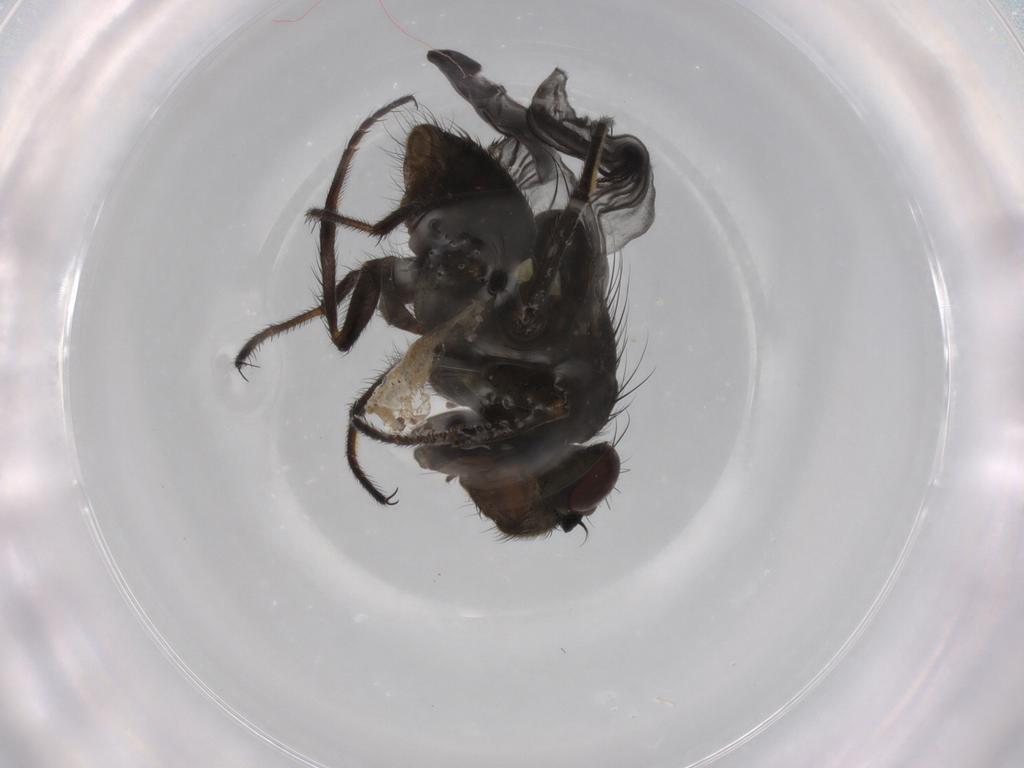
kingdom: Animalia
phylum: Arthropoda
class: Insecta
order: Diptera
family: Ephydridae
